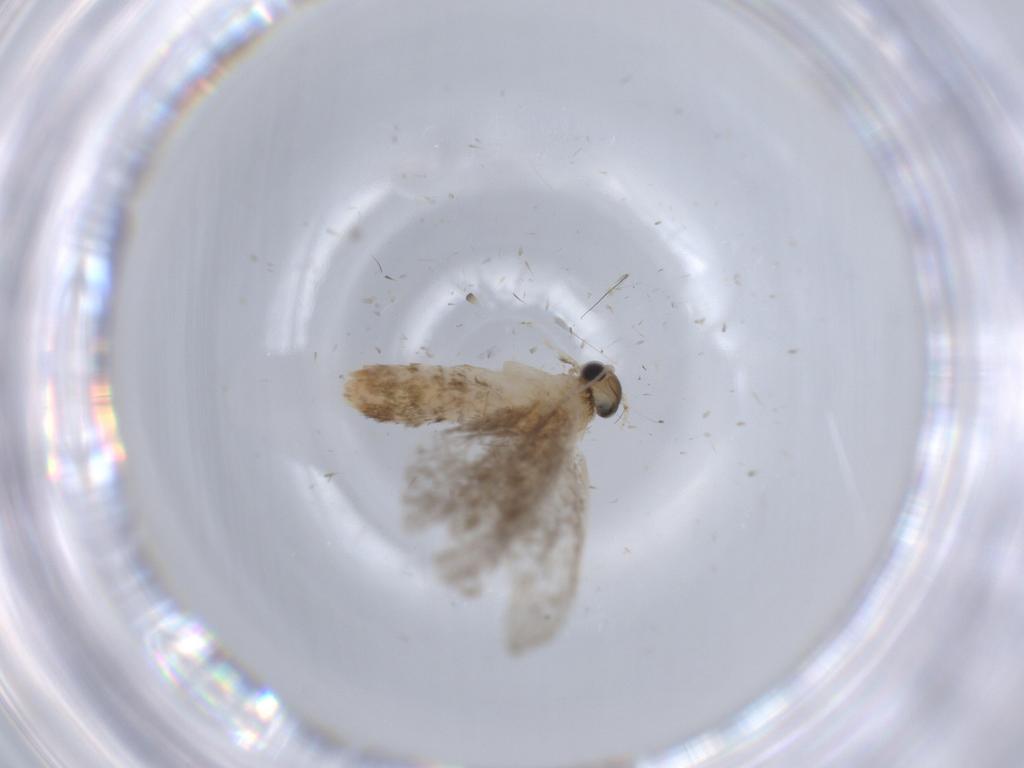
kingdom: Animalia
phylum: Arthropoda
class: Insecta
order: Lepidoptera
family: Tineidae
